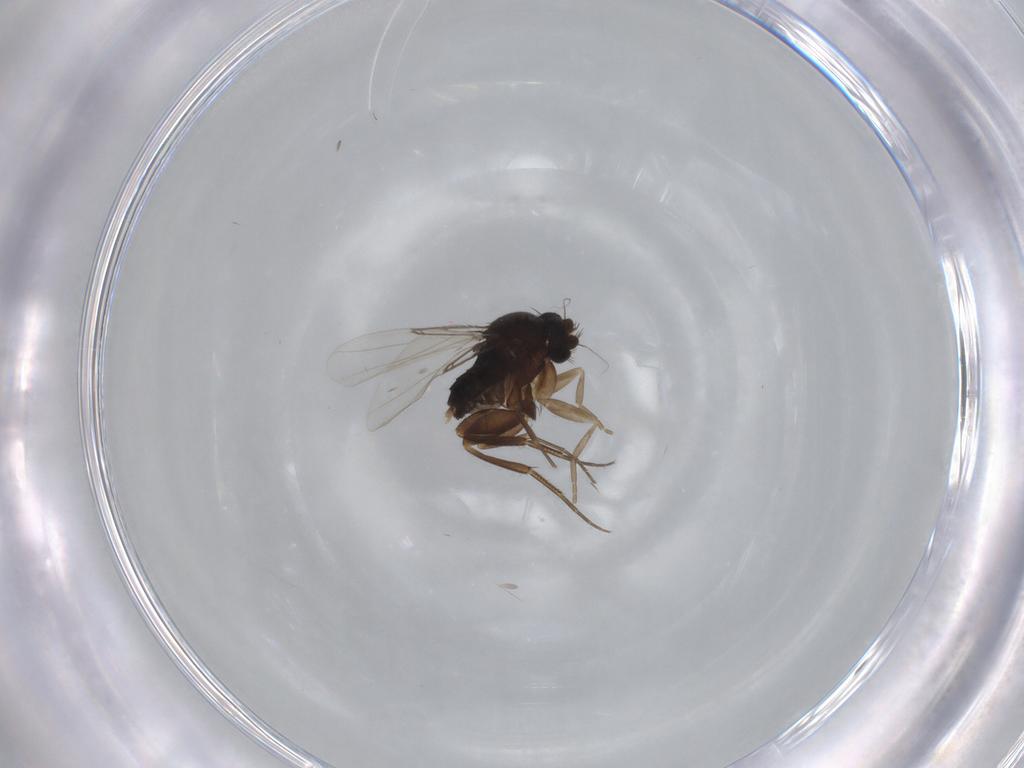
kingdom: Animalia
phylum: Arthropoda
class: Insecta
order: Diptera
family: Phoridae
